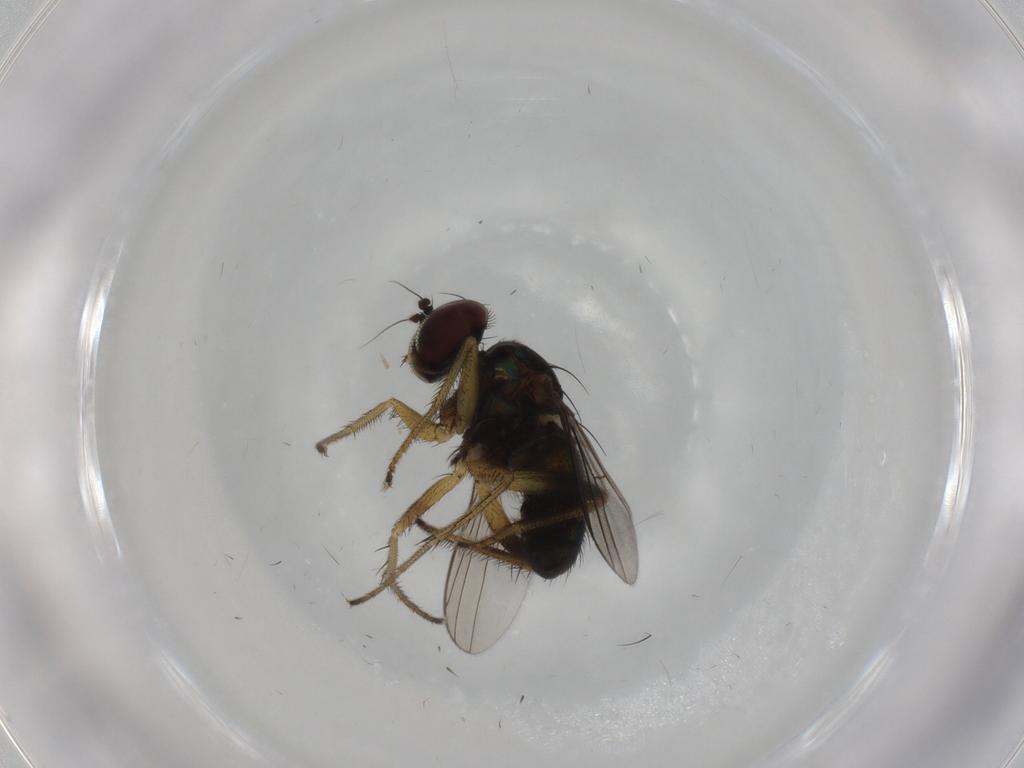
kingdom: Animalia
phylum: Arthropoda
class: Insecta
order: Diptera
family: Dolichopodidae
